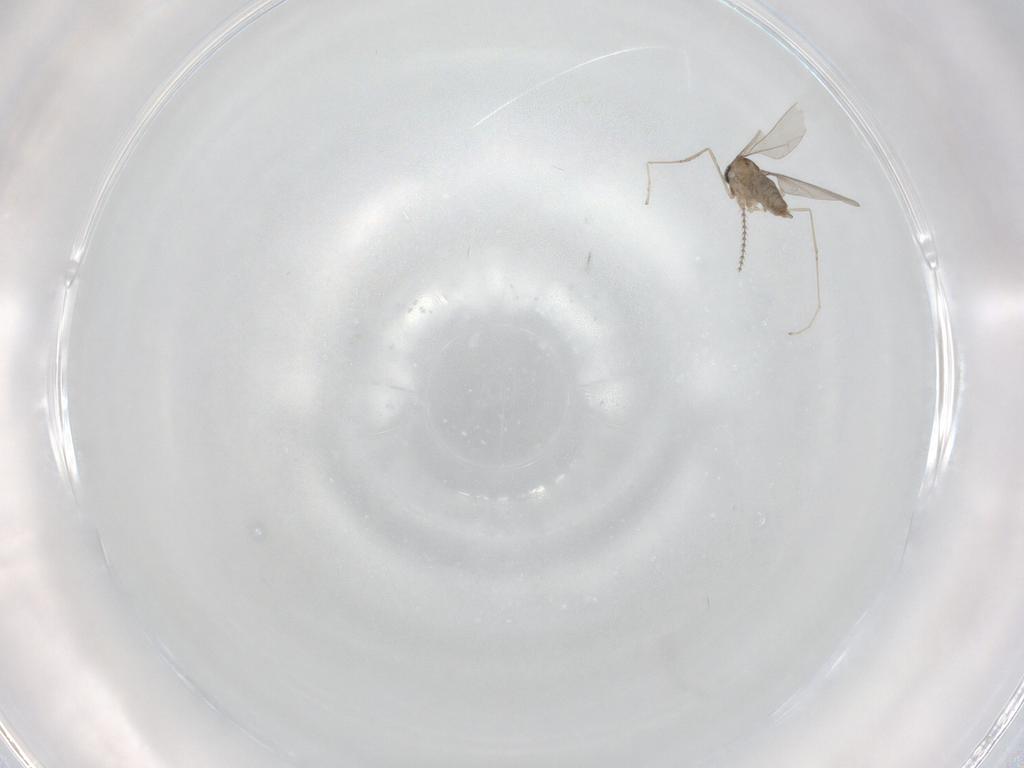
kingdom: Animalia
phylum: Arthropoda
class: Insecta
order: Diptera
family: Cecidomyiidae
